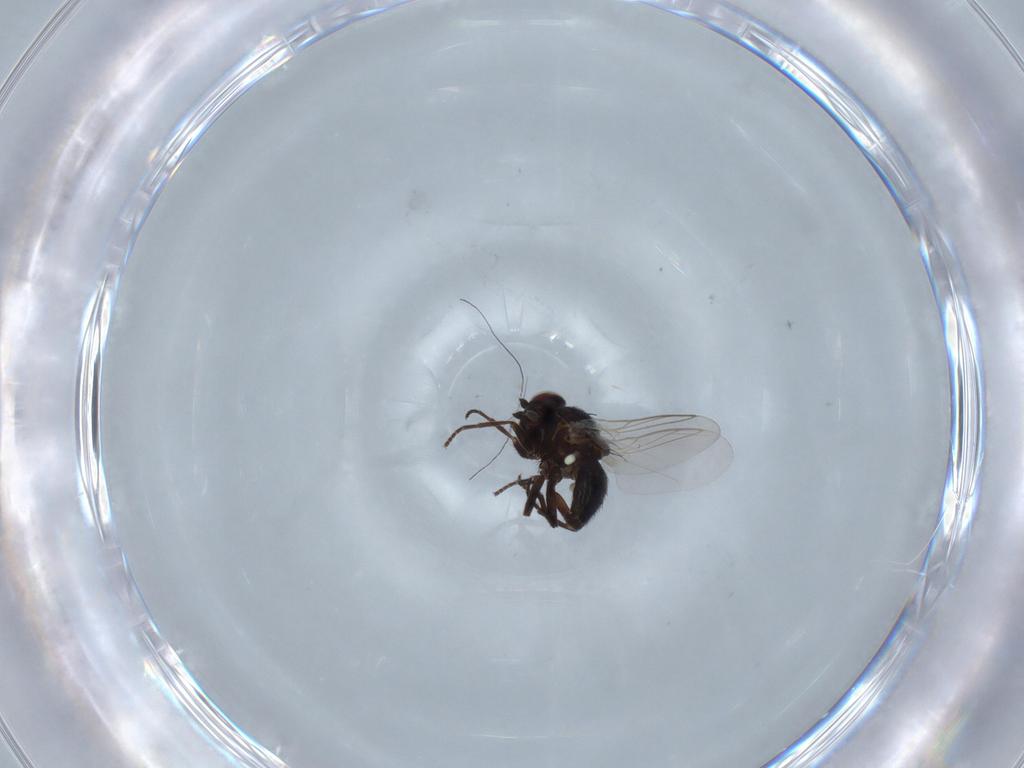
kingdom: Animalia
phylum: Arthropoda
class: Insecta
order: Diptera
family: Agromyzidae
